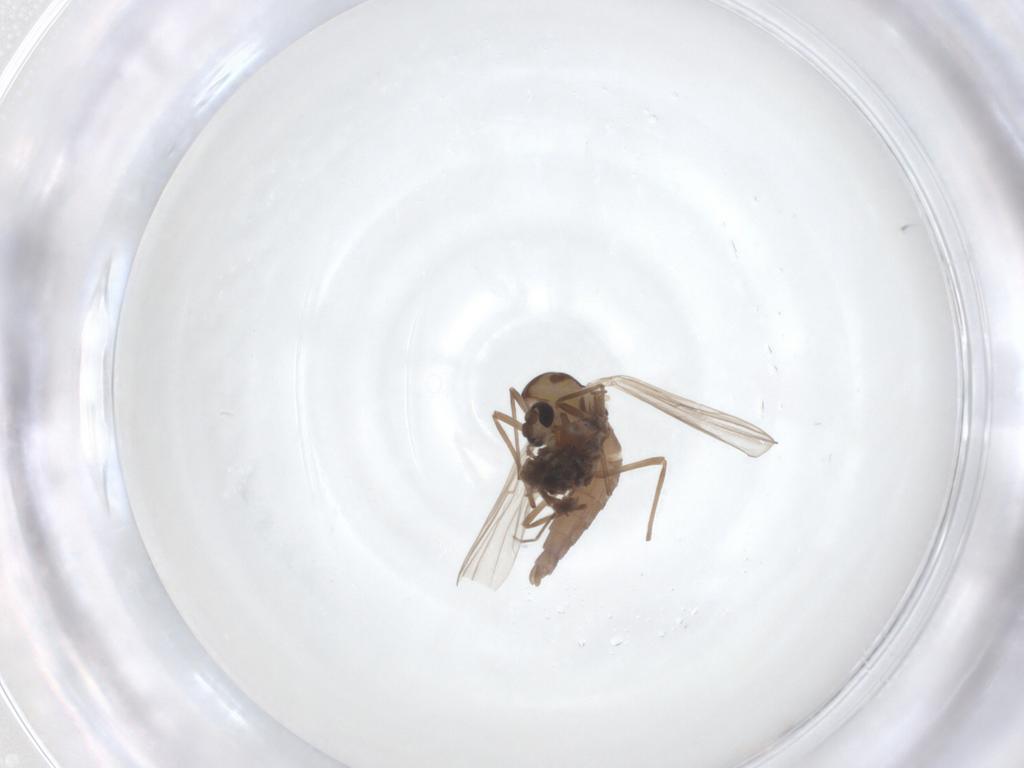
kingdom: Animalia
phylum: Arthropoda
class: Insecta
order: Diptera
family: Chironomidae
